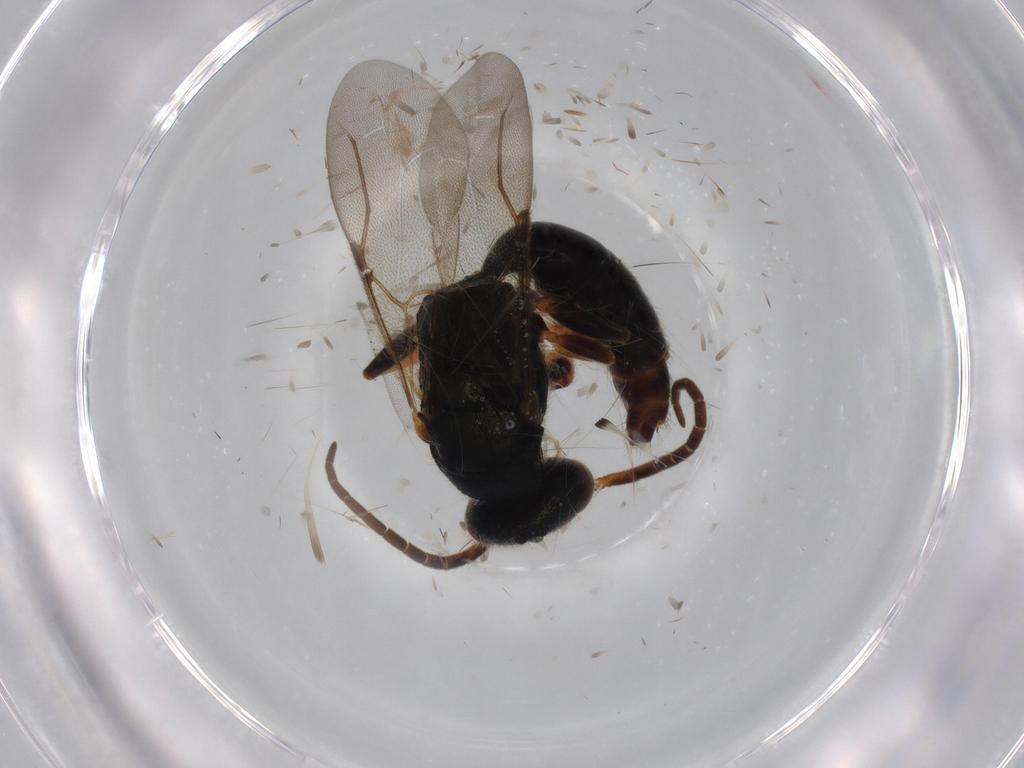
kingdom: Animalia
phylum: Arthropoda
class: Insecta
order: Hymenoptera
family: Bethylidae
